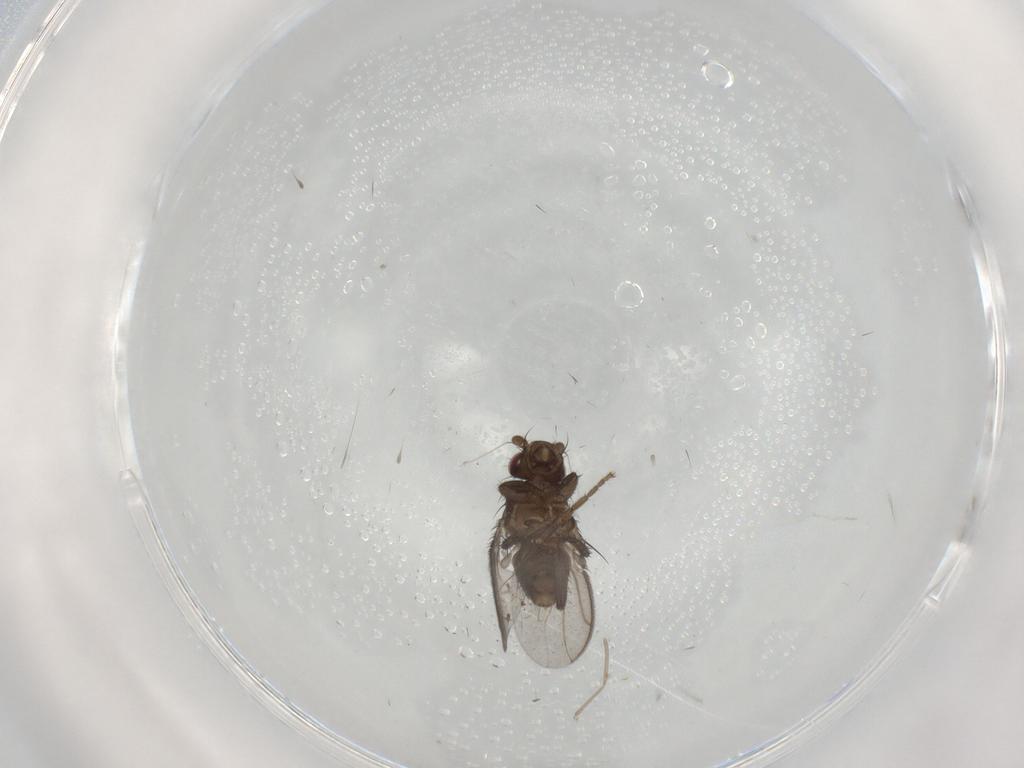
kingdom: Animalia
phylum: Arthropoda
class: Insecta
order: Diptera
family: Sphaeroceridae
